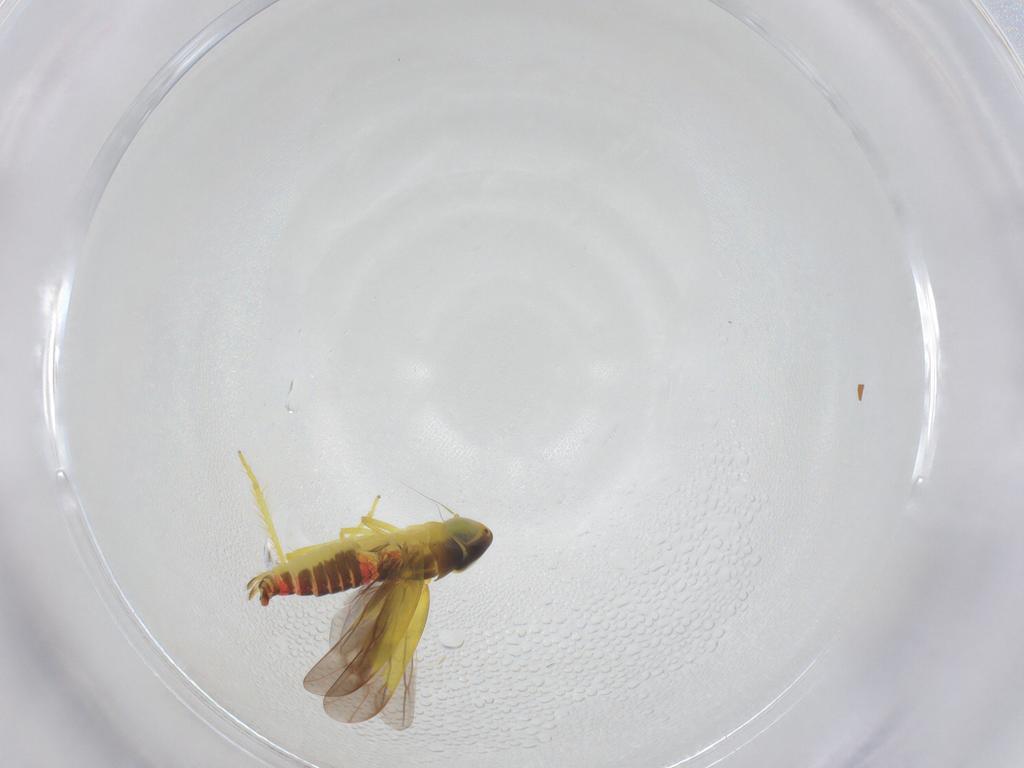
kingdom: Animalia
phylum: Arthropoda
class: Insecta
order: Hemiptera
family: Cicadellidae
